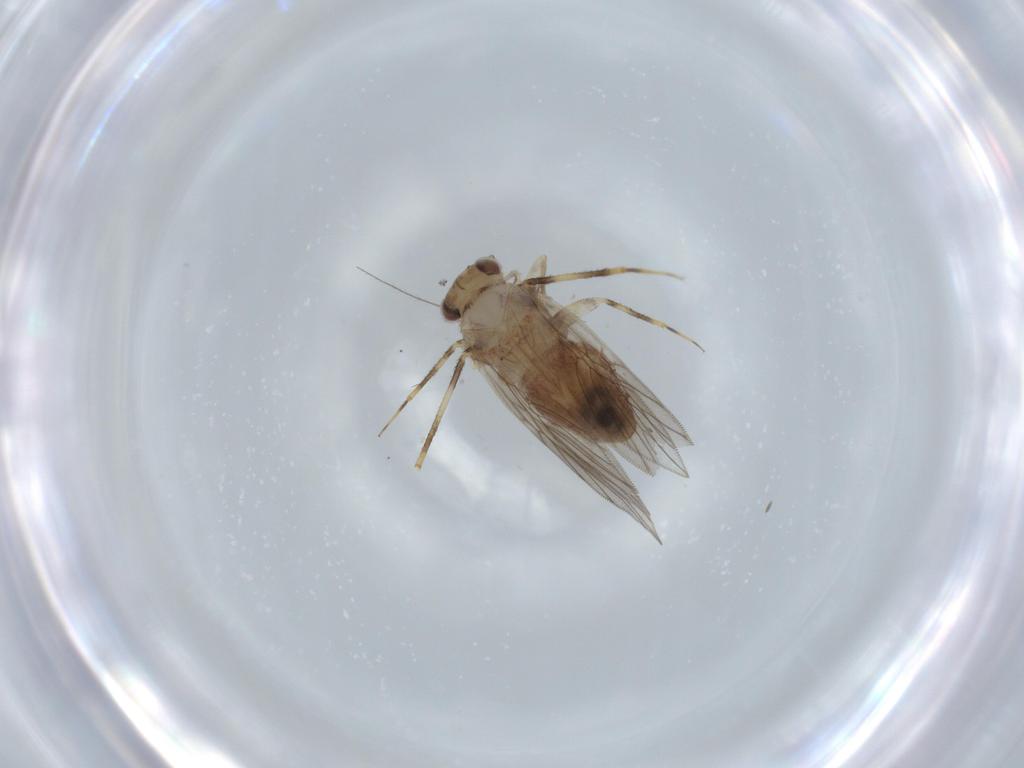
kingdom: Animalia
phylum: Arthropoda
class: Insecta
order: Psocodea
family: Lepidopsocidae
